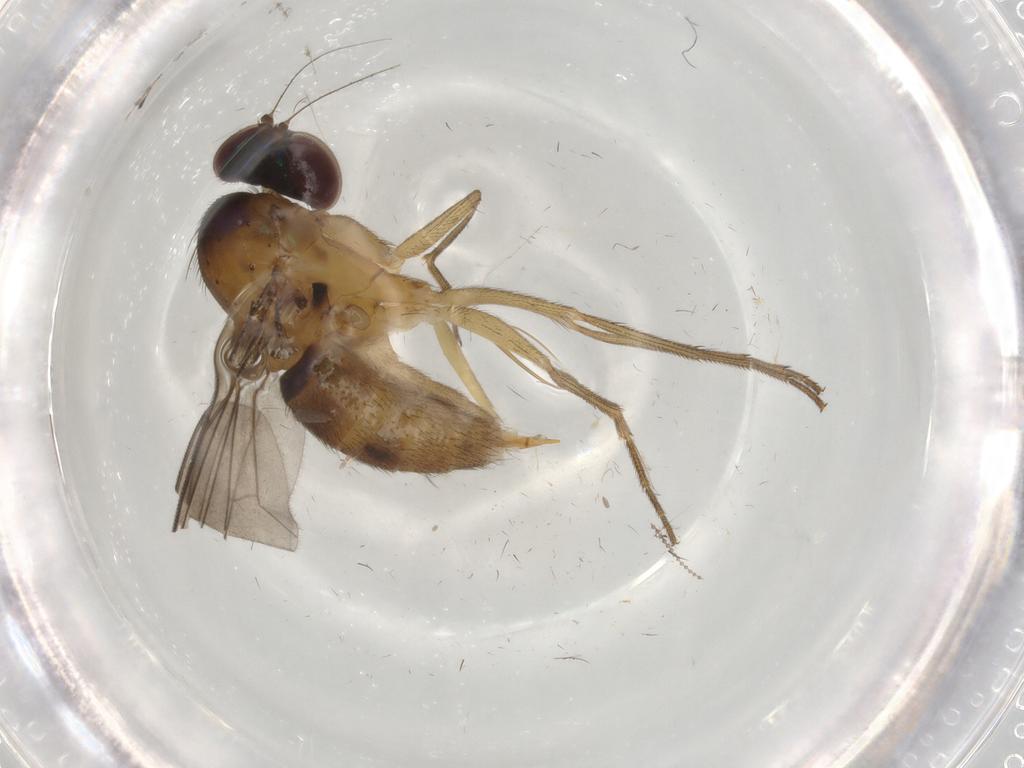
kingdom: Animalia
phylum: Arthropoda
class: Insecta
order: Diptera
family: Dolichopodidae
